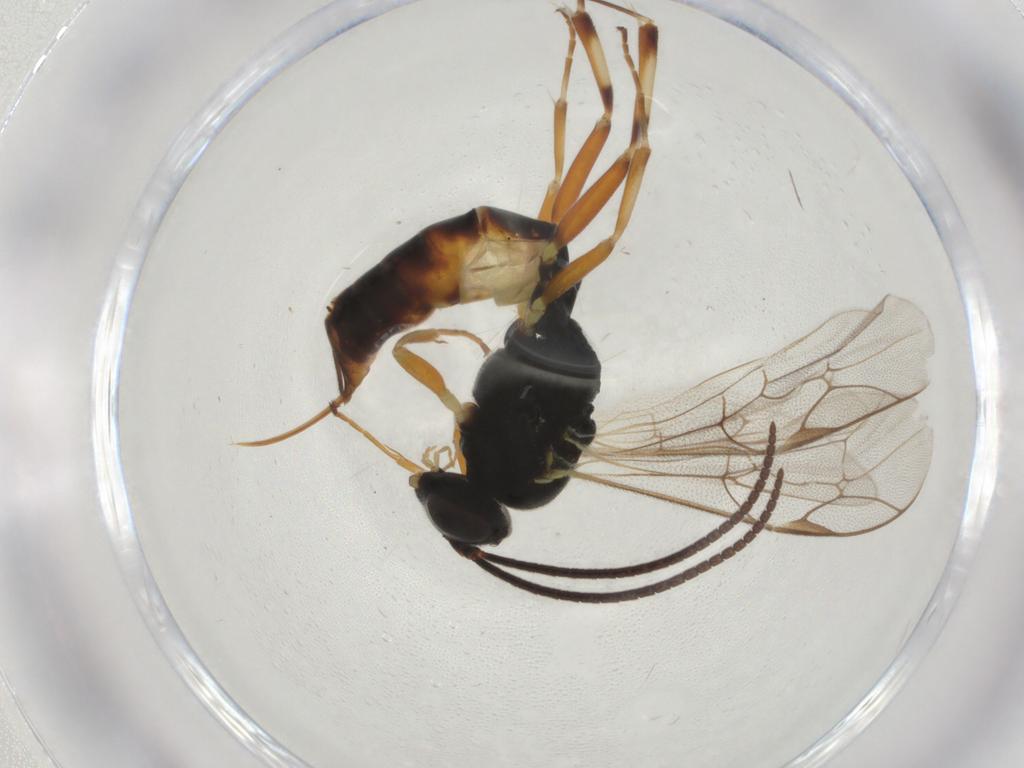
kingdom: Animalia
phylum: Arthropoda
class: Insecta
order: Hymenoptera
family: Ichneumonidae
